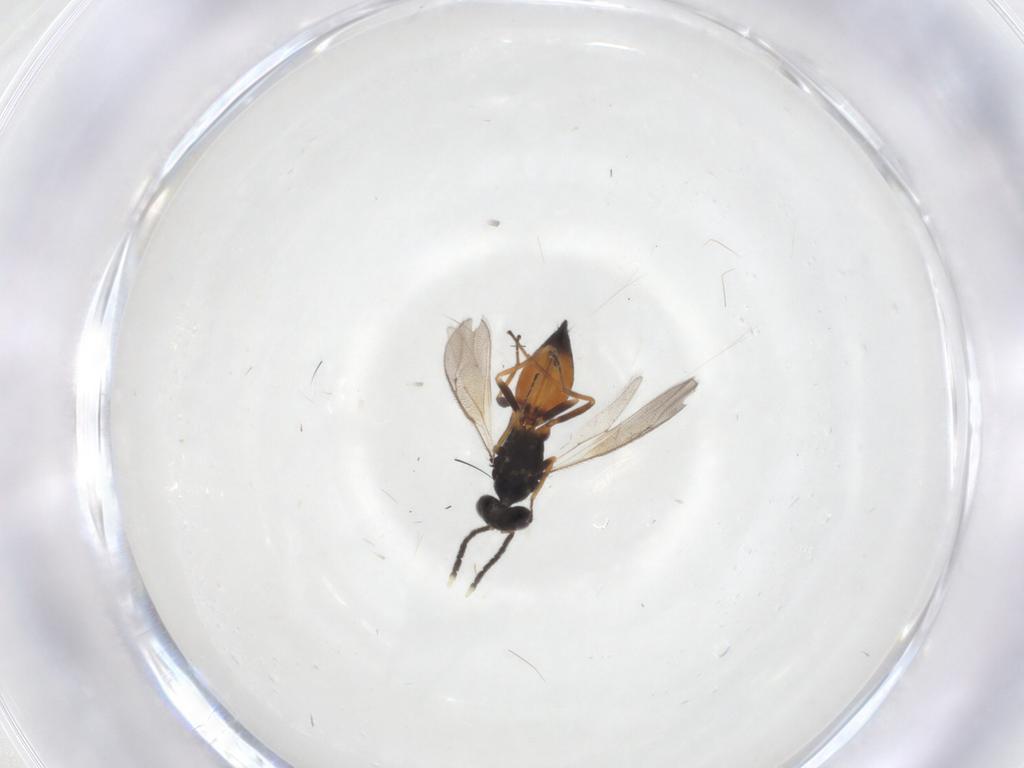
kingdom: Animalia
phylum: Arthropoda
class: Insecta
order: Hymenoptera
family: Eulophidae
